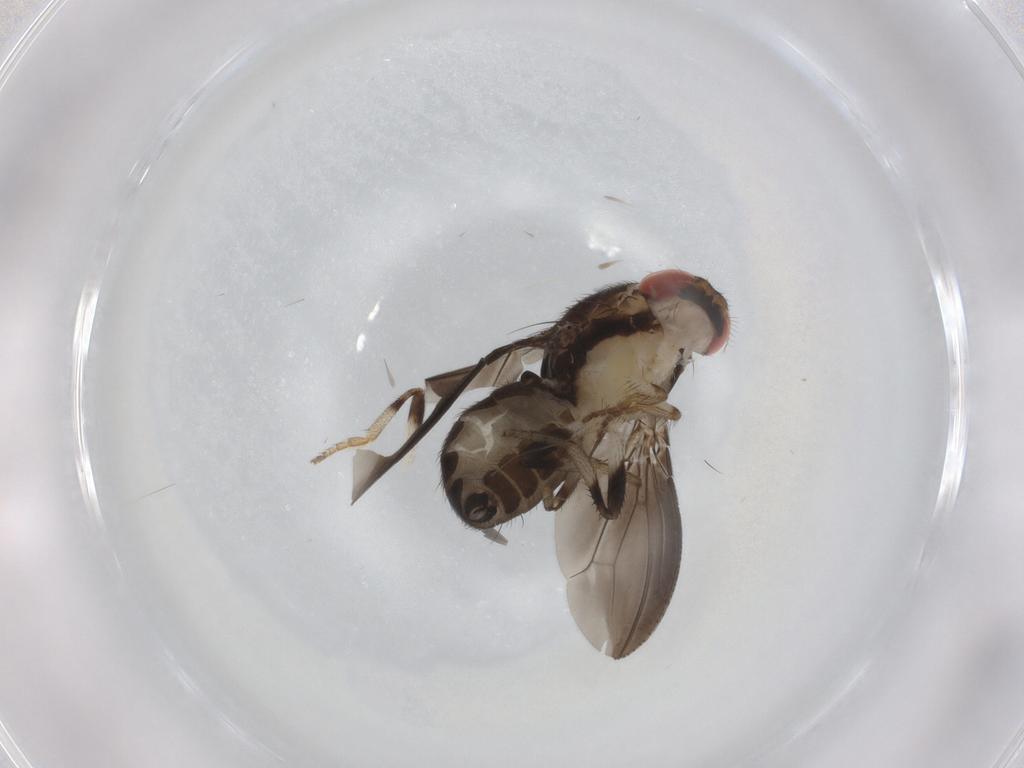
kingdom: Animalia
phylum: Arthropoda
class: Insecta
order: Diptera
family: Drosophilidae
